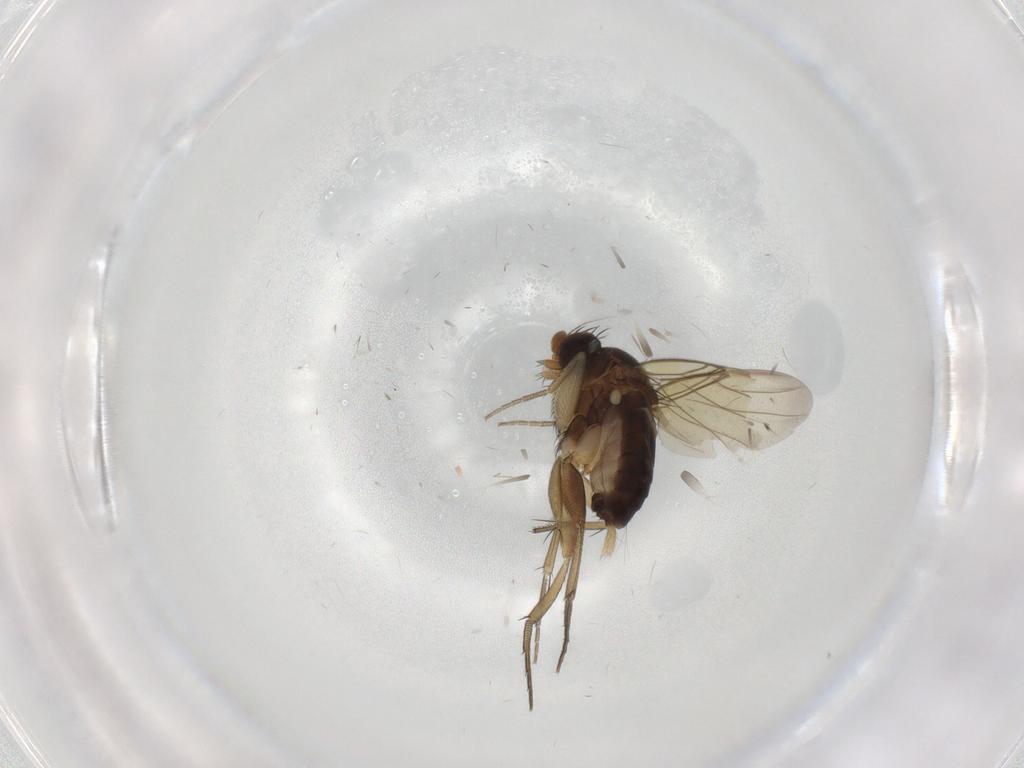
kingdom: Animalia
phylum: Arthropoda
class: Insecta
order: Diptera
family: Phoridae
